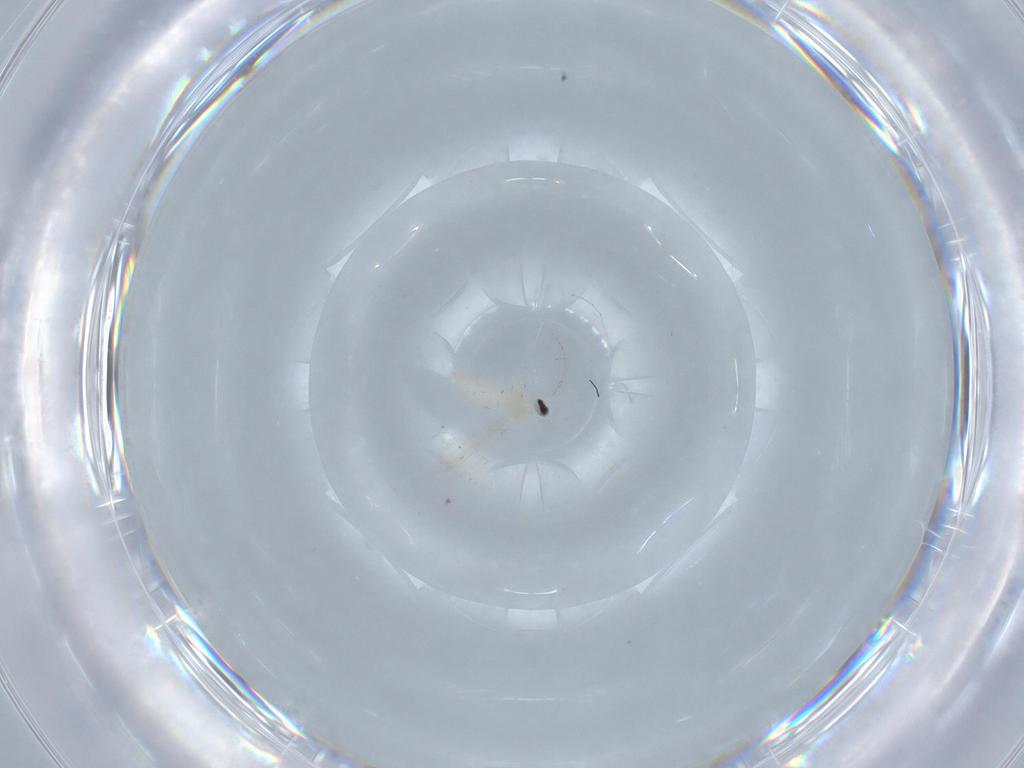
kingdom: Animalia
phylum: Arthropoda
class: Insecta
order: Diptera
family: Cecidomyiidae
